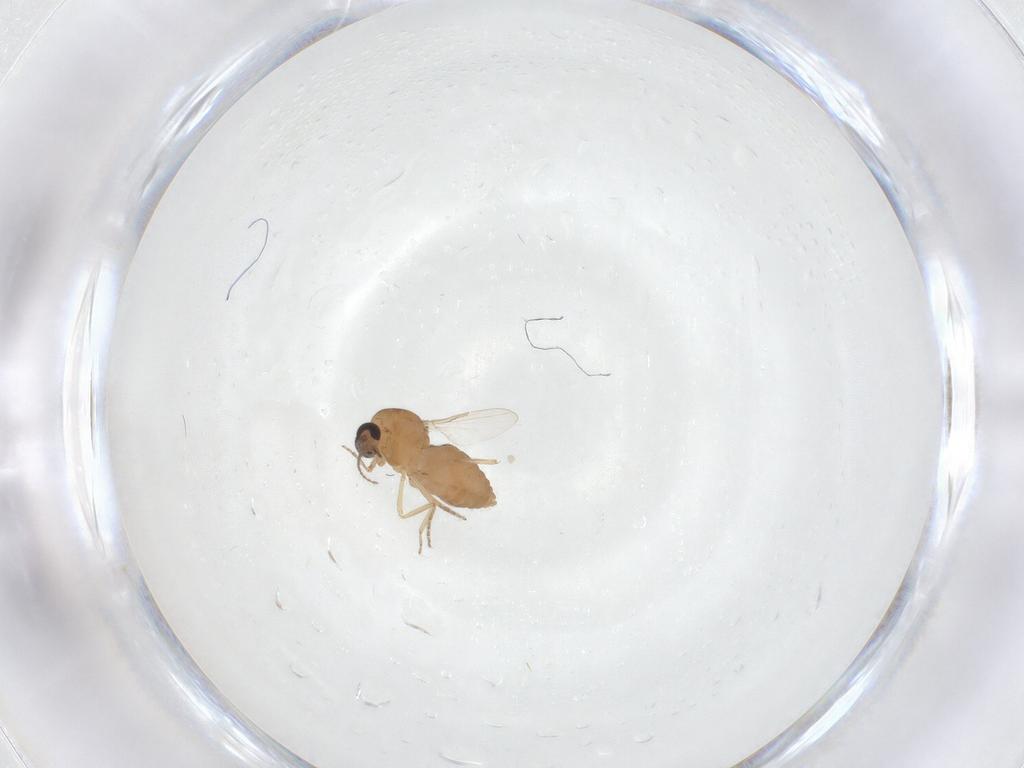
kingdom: Animalia
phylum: Arthropoda
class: Insecta
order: Diptera
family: Ceratopogonidae
